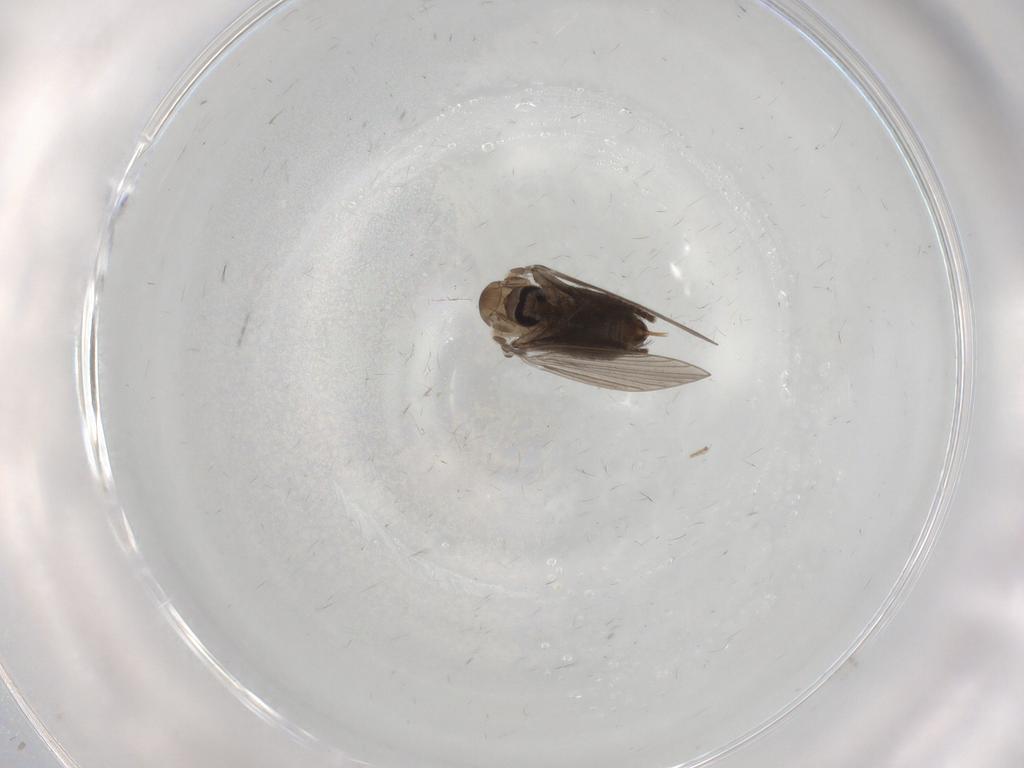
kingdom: Animalia
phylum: Arthropoda
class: Insecta
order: Diptera
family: Psychodidae
